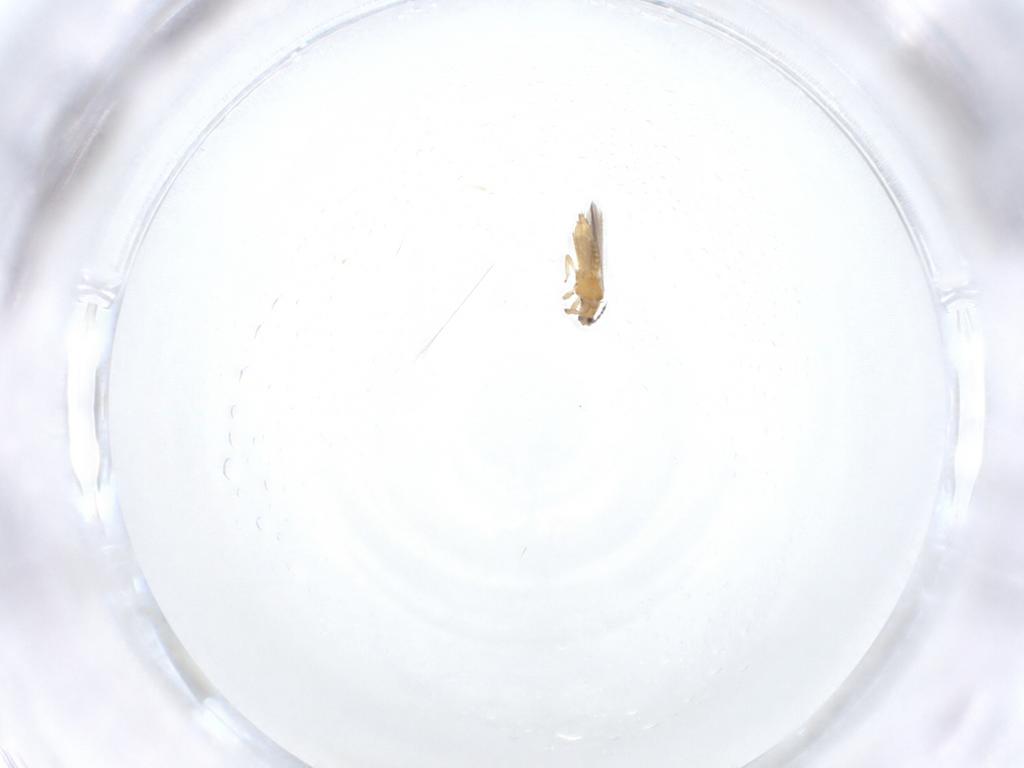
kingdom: Animalia
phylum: Arthropoda
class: Insecta
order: Thysanoptera
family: Thripidae
